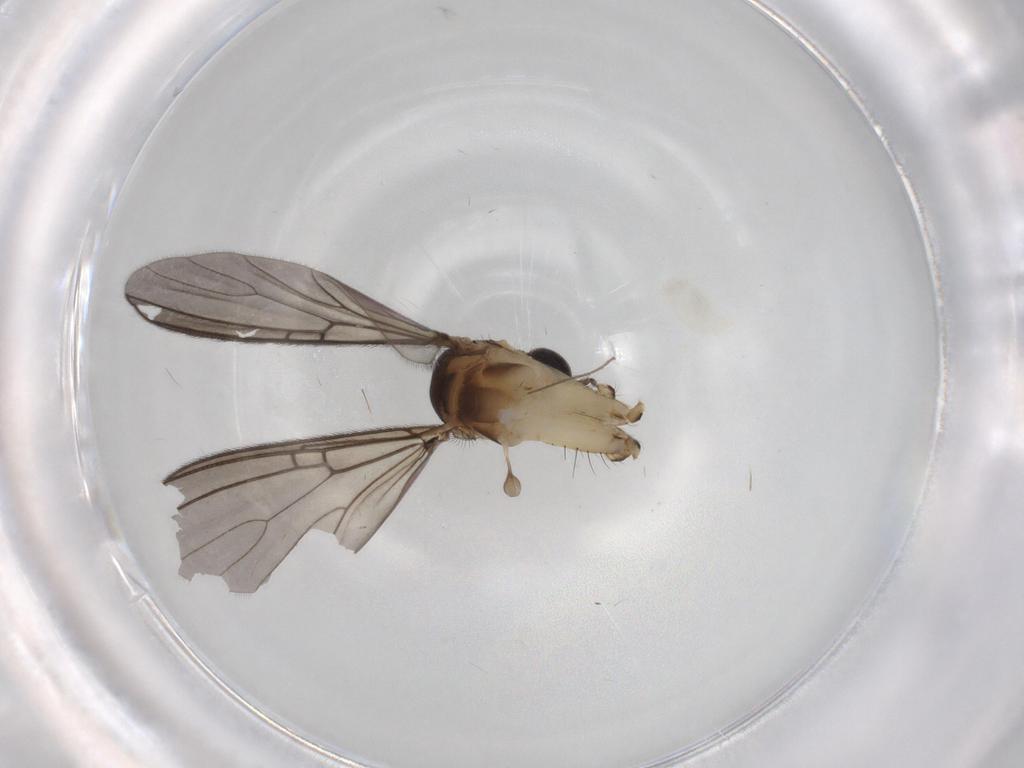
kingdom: Animalia
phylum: Arthropoda
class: Insecta
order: Diptera
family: Mycetophilidae
